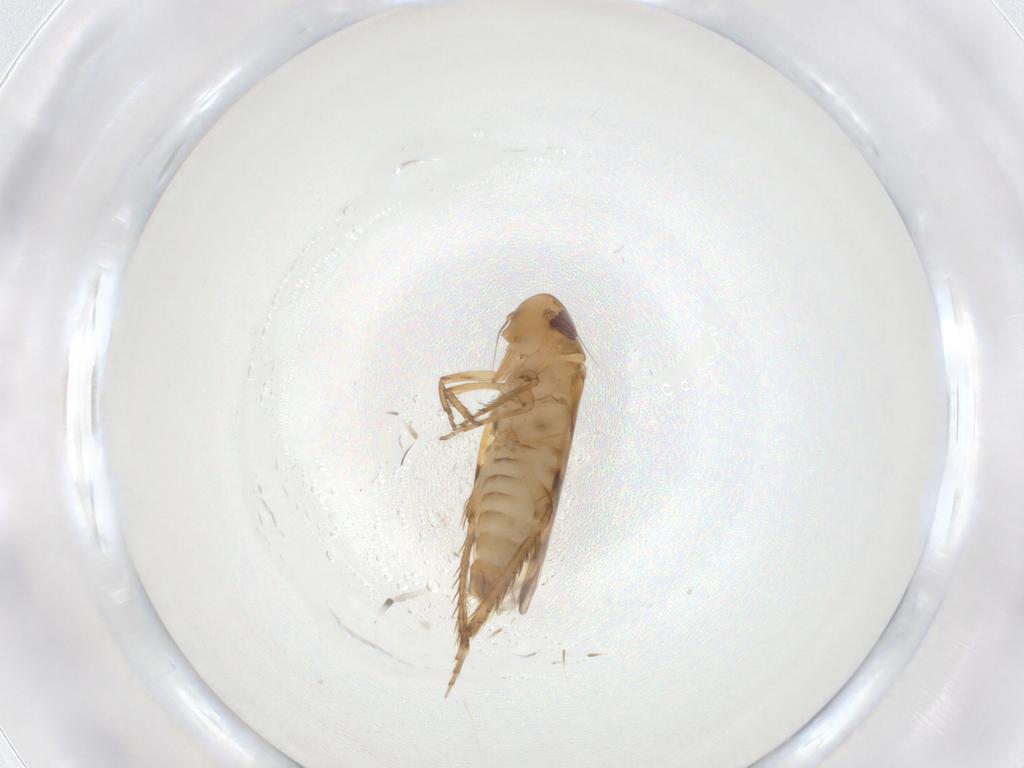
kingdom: Animalia
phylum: Arthropoda
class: Insecta
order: Hemiptera
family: Cicadellidae
